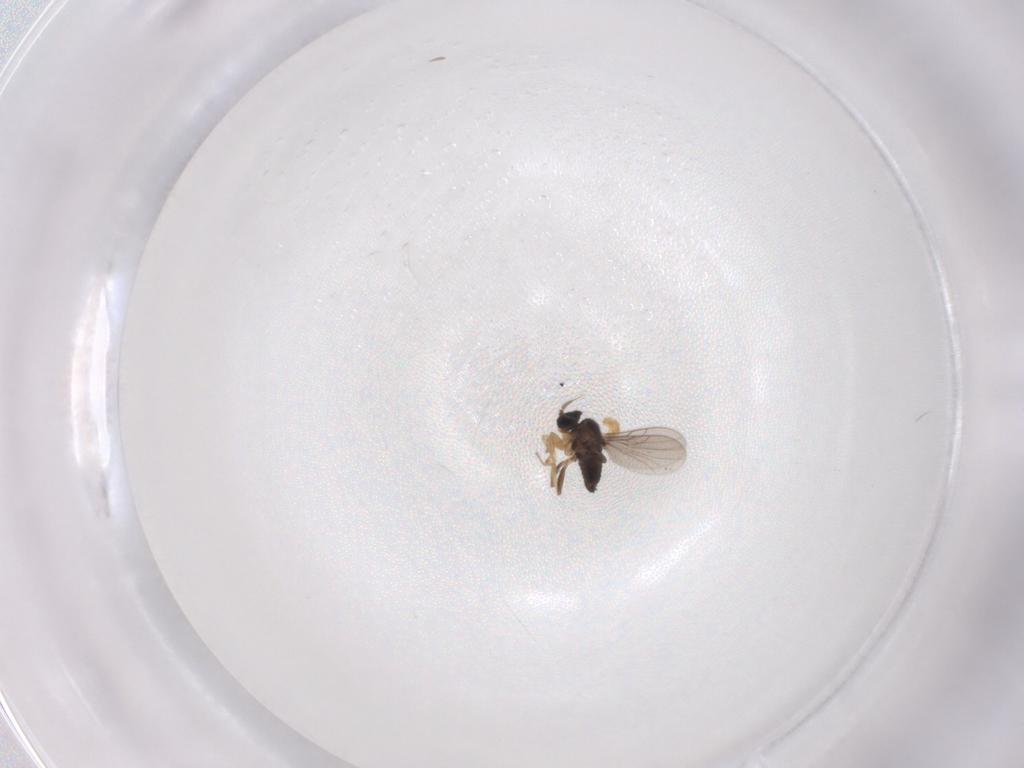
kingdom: Animalia
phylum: Arthropoda
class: Insecta
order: Diptera
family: Hybotidae
